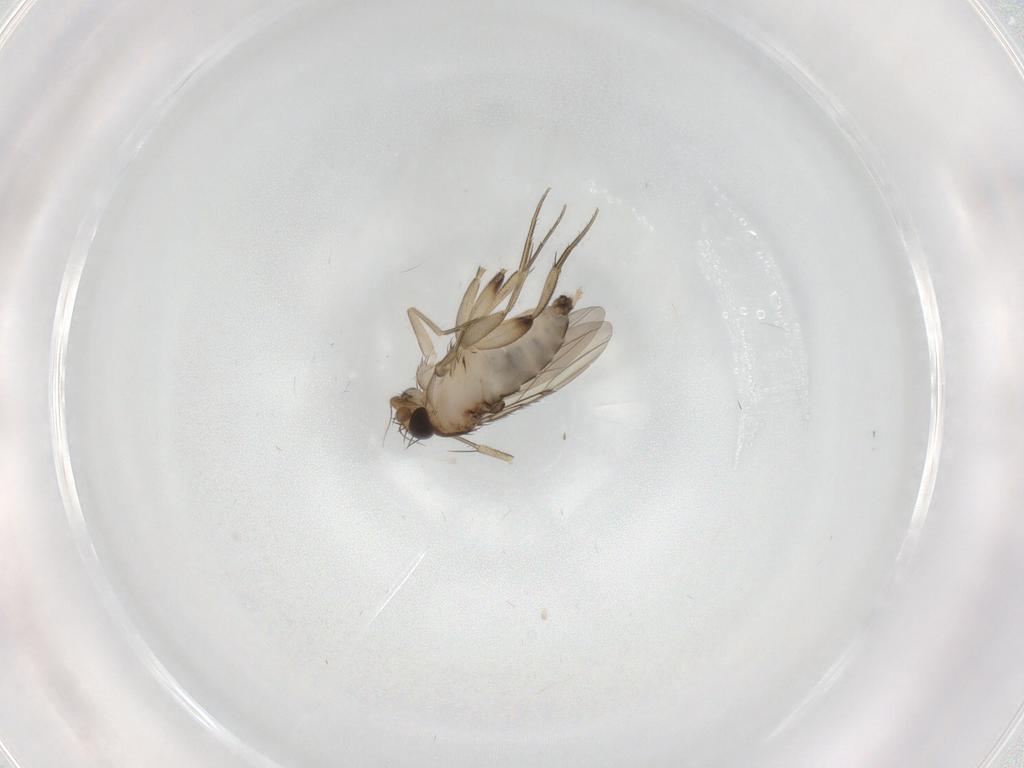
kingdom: Animalia
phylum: Arthropoda
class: Insecta
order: Diptera
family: Phoridae
